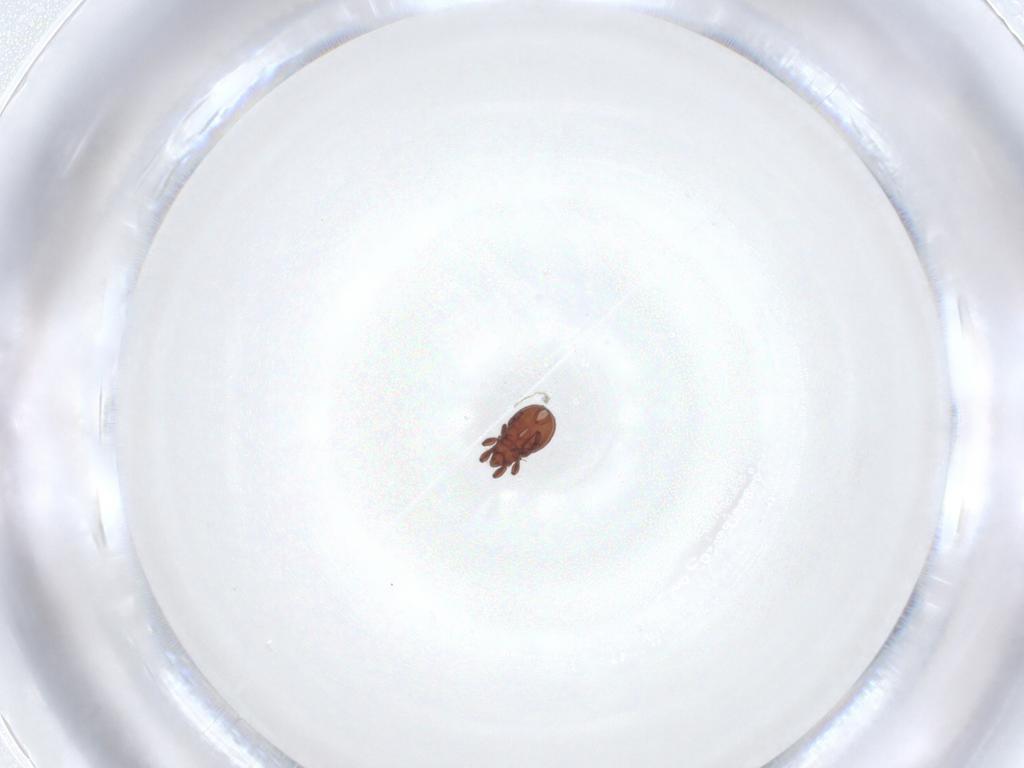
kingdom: Animalia
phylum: Arthropoda
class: Arachnida
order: Sarcoptiformes
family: Eremaeidae
